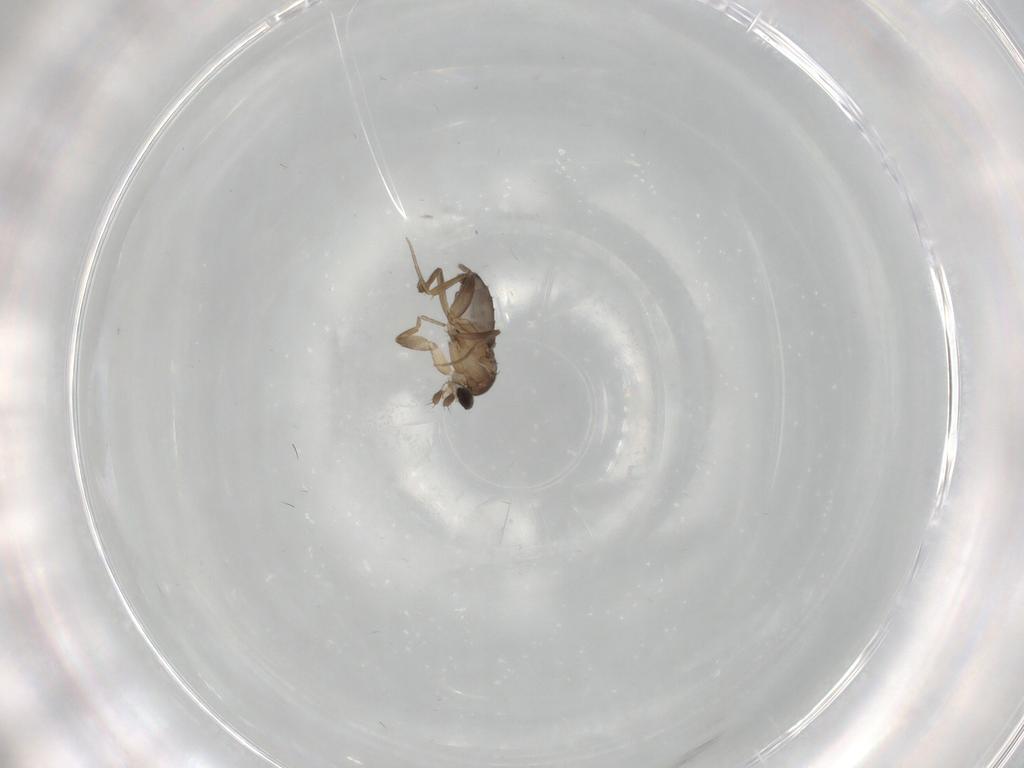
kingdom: Animalia
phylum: Arthropoda
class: Insecta
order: Diptera
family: Phoridae
